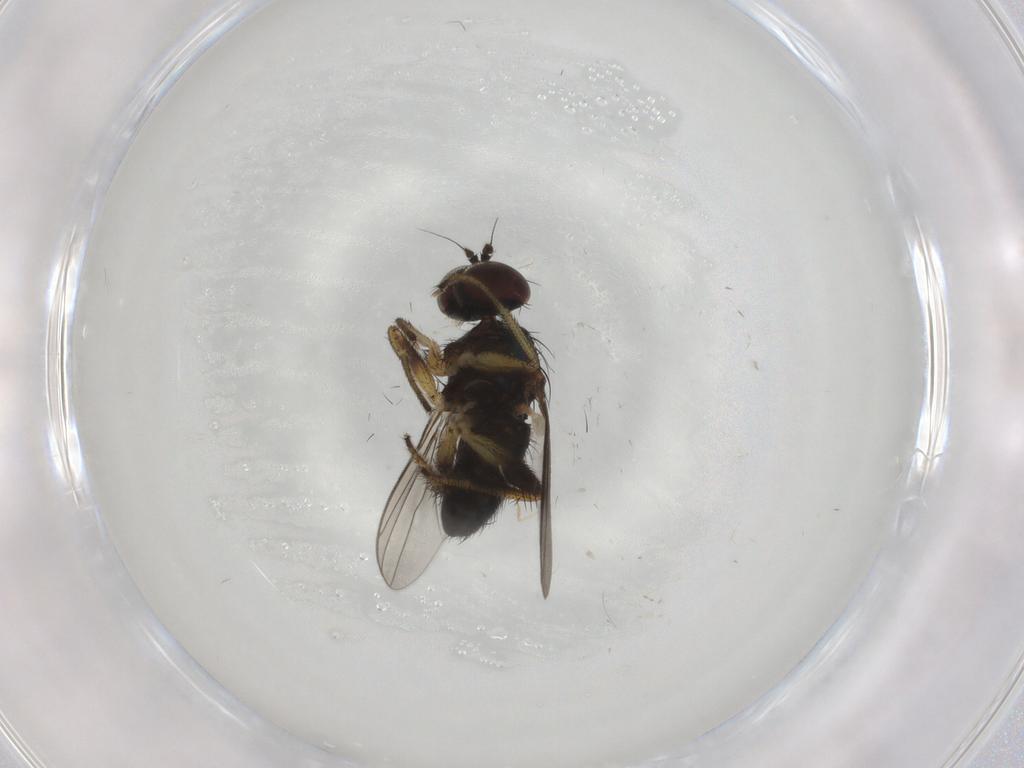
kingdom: Animalia
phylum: Arthropoda
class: Insecta
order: Diptera
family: Dolichopodidae
